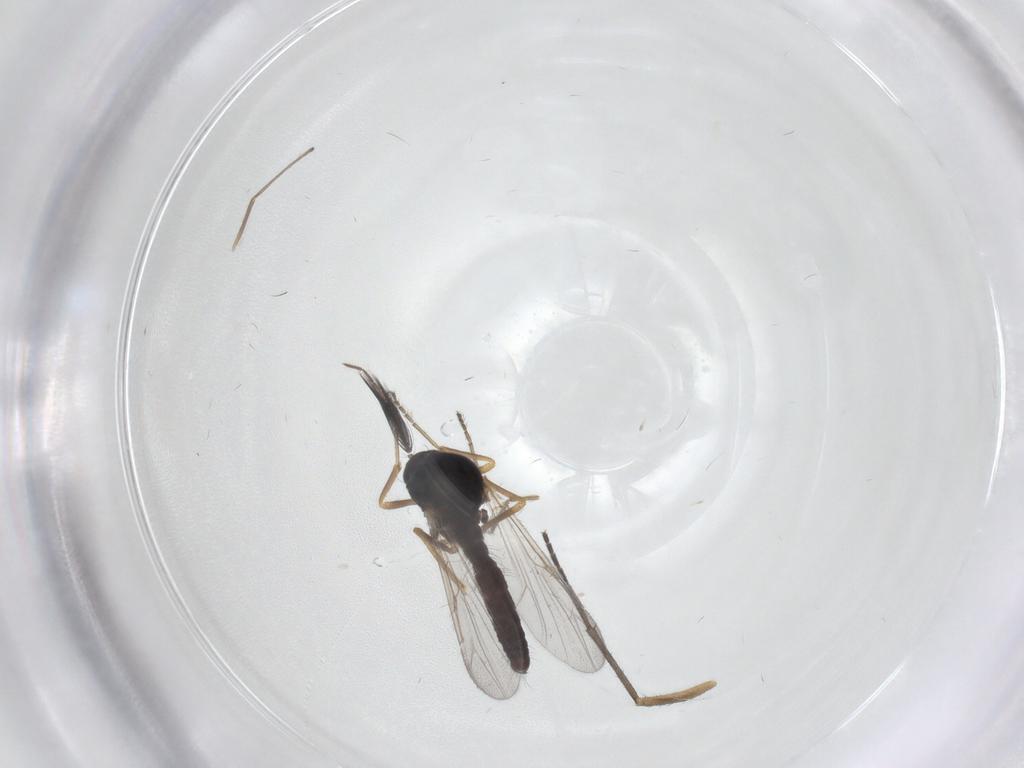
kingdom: Animalia
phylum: Arthropoda
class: Insecta
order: Diptera
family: Ceratopogonidae
